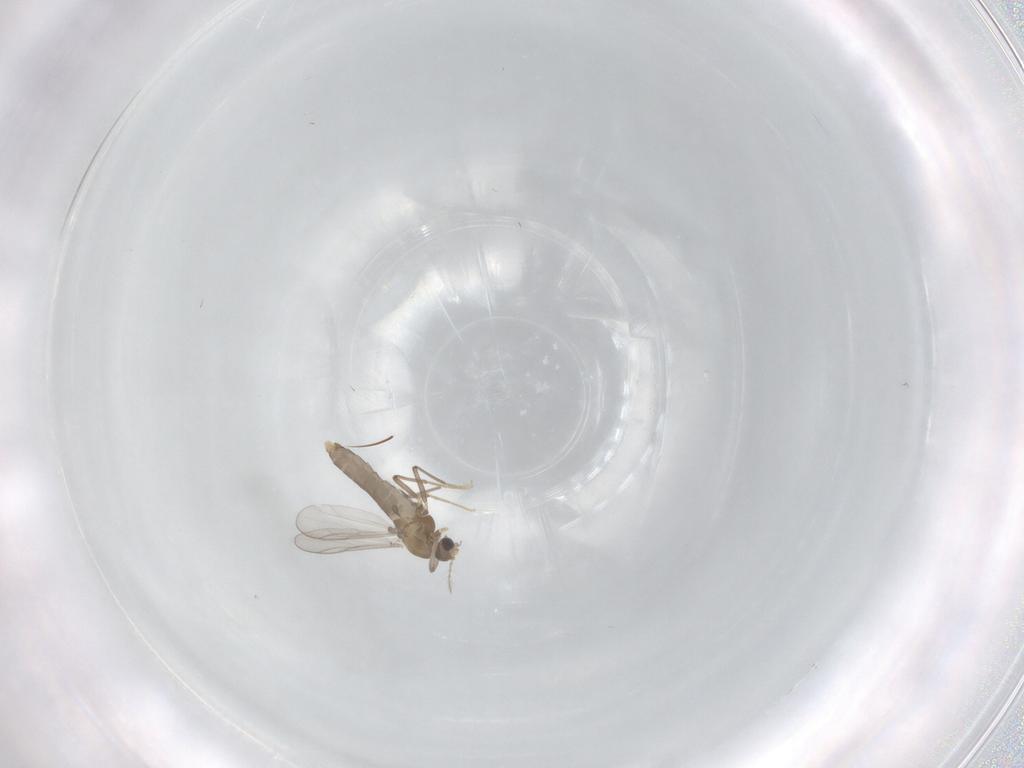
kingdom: Animalia
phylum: Arthropoda
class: Insecta
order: Diptera
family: Chironomidae
